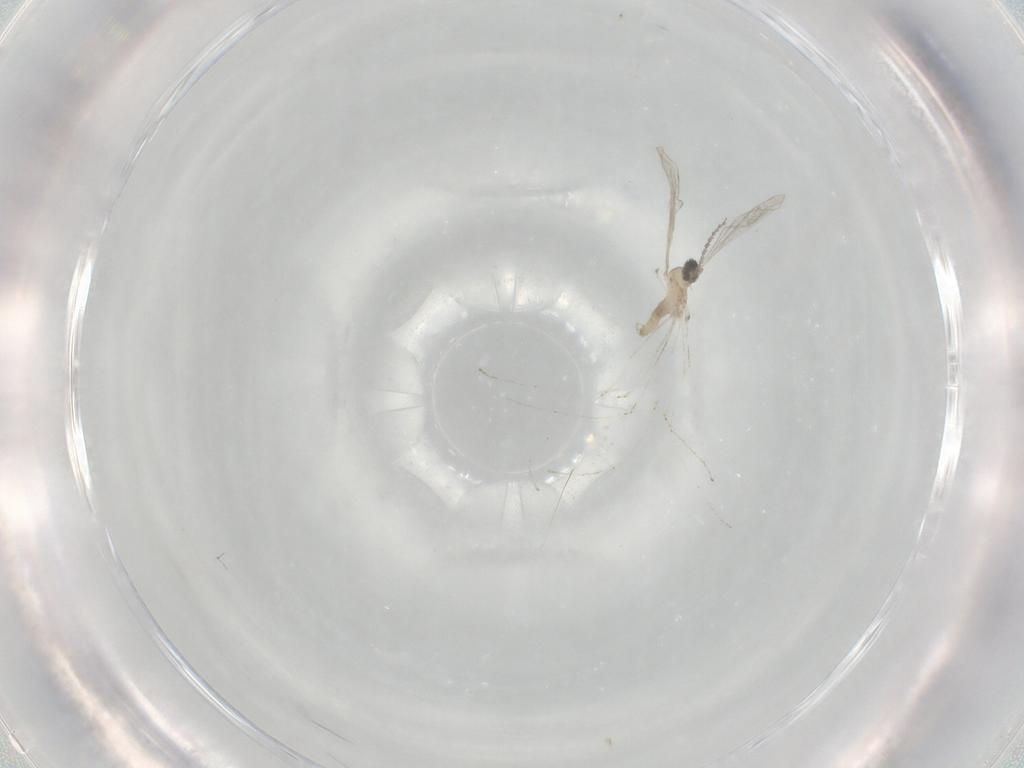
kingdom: Animalia
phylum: Arthropoda
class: Insecta
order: Diptera
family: Cecidomyiidae
